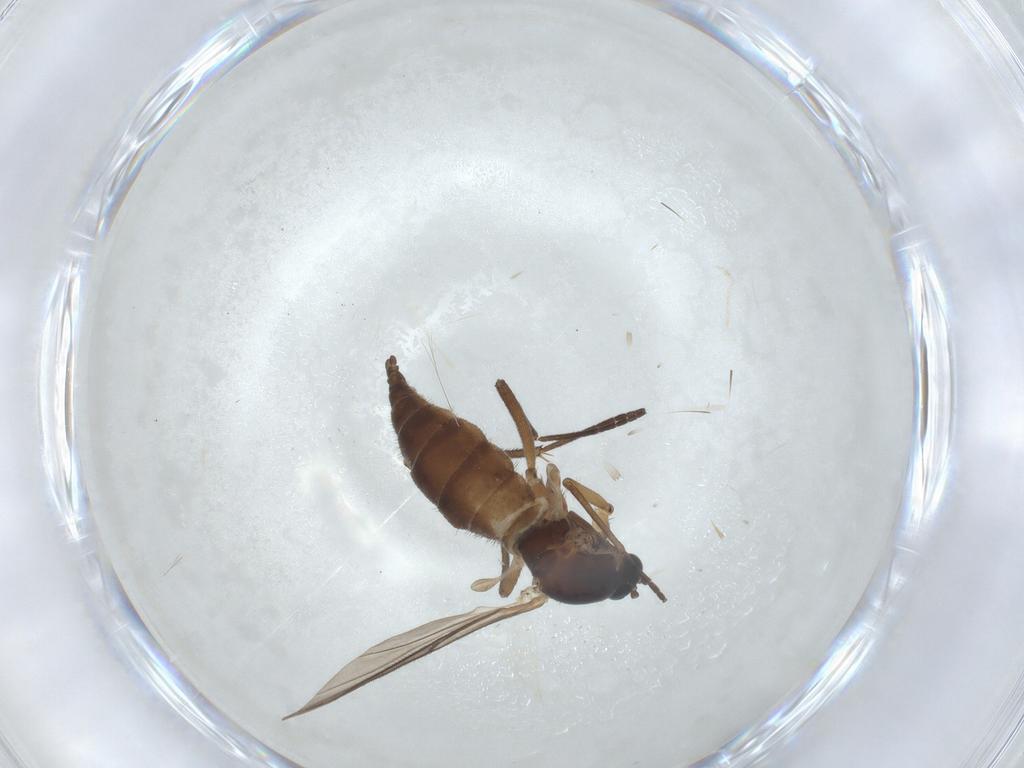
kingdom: Animalia
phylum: Arthropoda
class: Insecta
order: Diptera
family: Sciaridae
